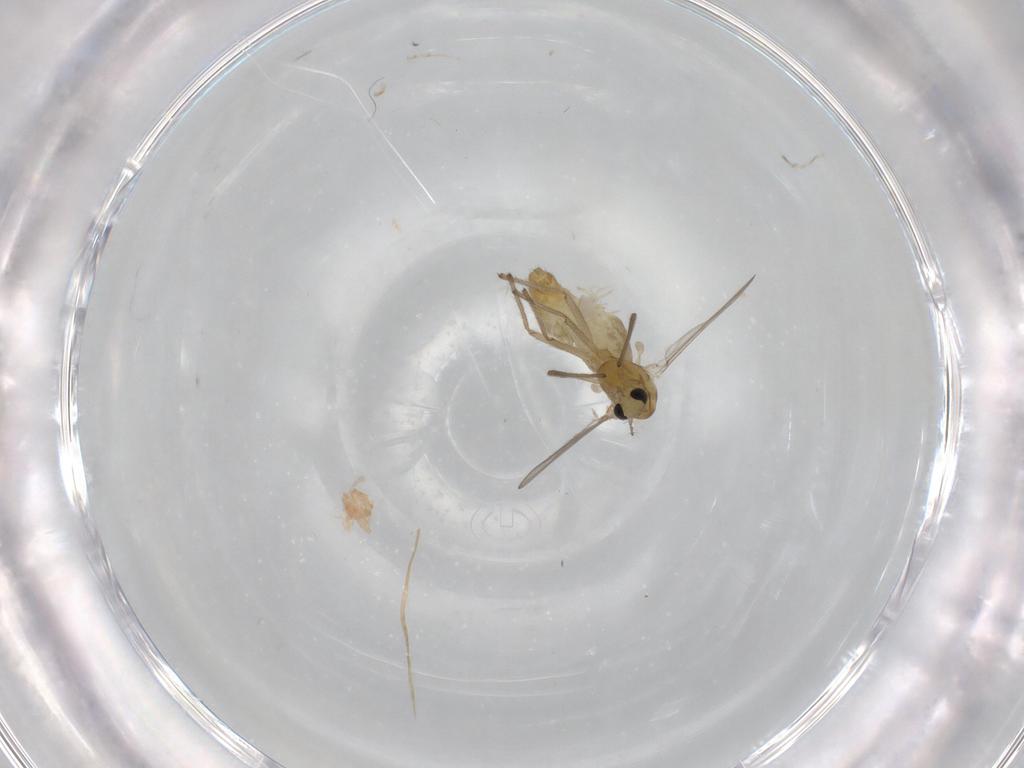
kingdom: Animalia
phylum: Arthropoda
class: Insecta
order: Diptera
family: Chironomidae
